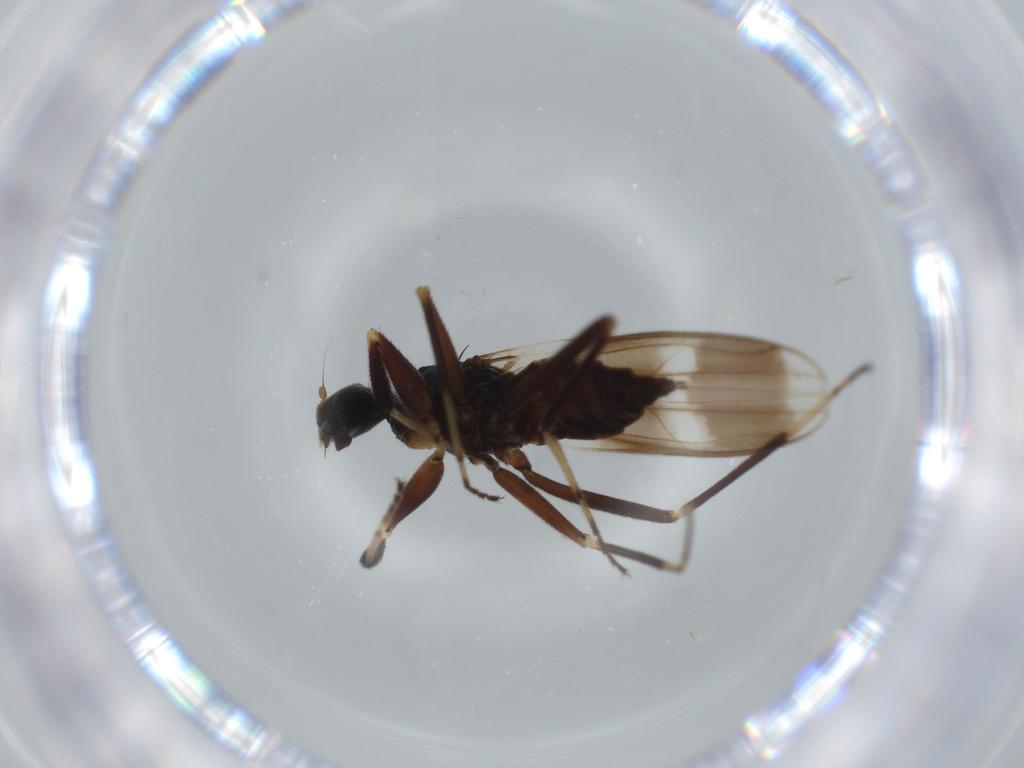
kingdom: Animalia
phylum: Arthropoda
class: Insecta
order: Diptera
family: Hybotidae
